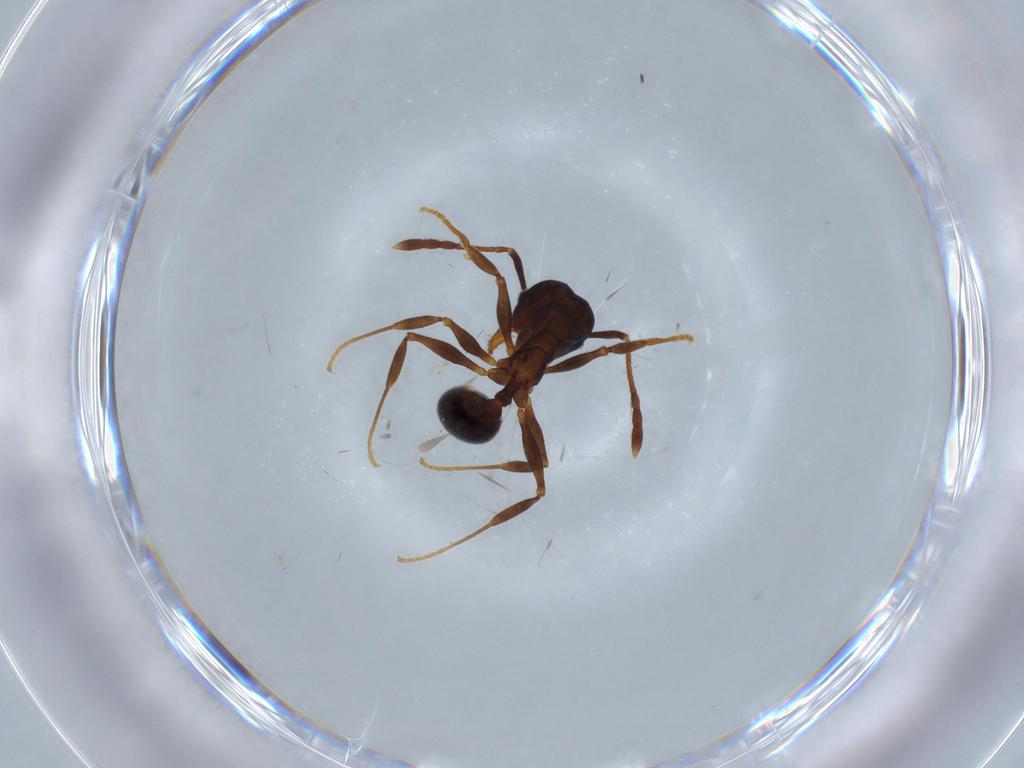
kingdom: Animalia
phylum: Arthropoda
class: Insecta
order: Hymenoptera
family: Formicidae
